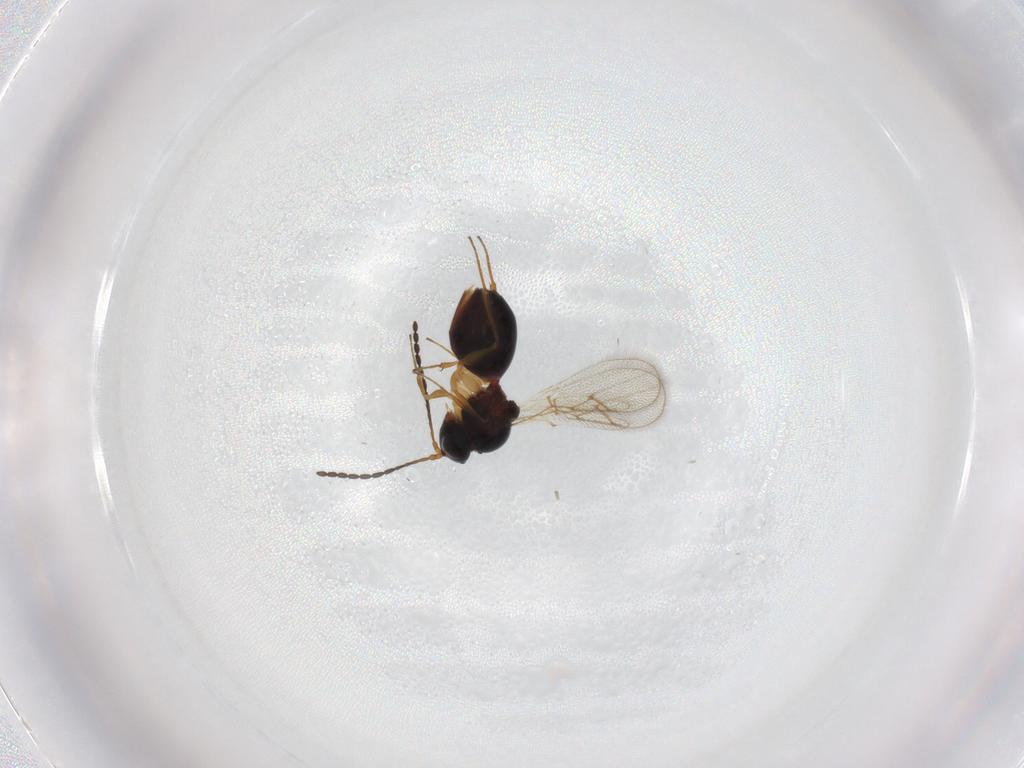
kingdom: Animalia
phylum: Arthropoda
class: Insecta
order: Hymenoptera
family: Figitidae
